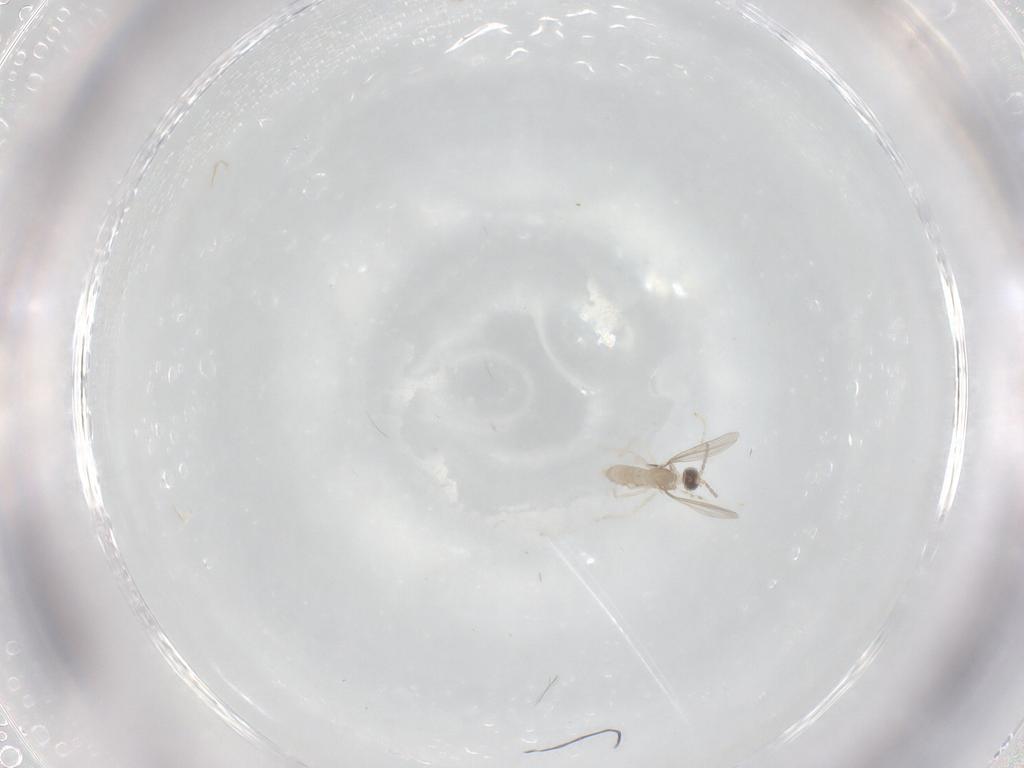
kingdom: Animalia
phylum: Arthropoda
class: Insecta
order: Diptera
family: Cecidomyiidae
